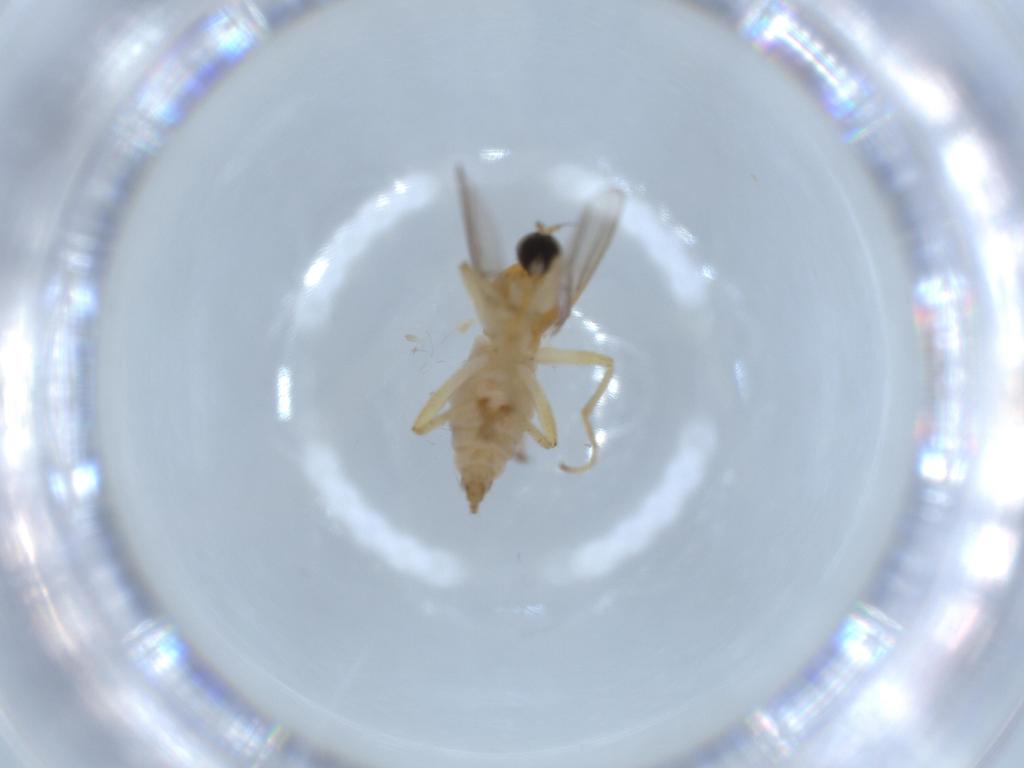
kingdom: Animalia
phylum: Arthropoda
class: Insecta
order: Diptera
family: Hybotidae
